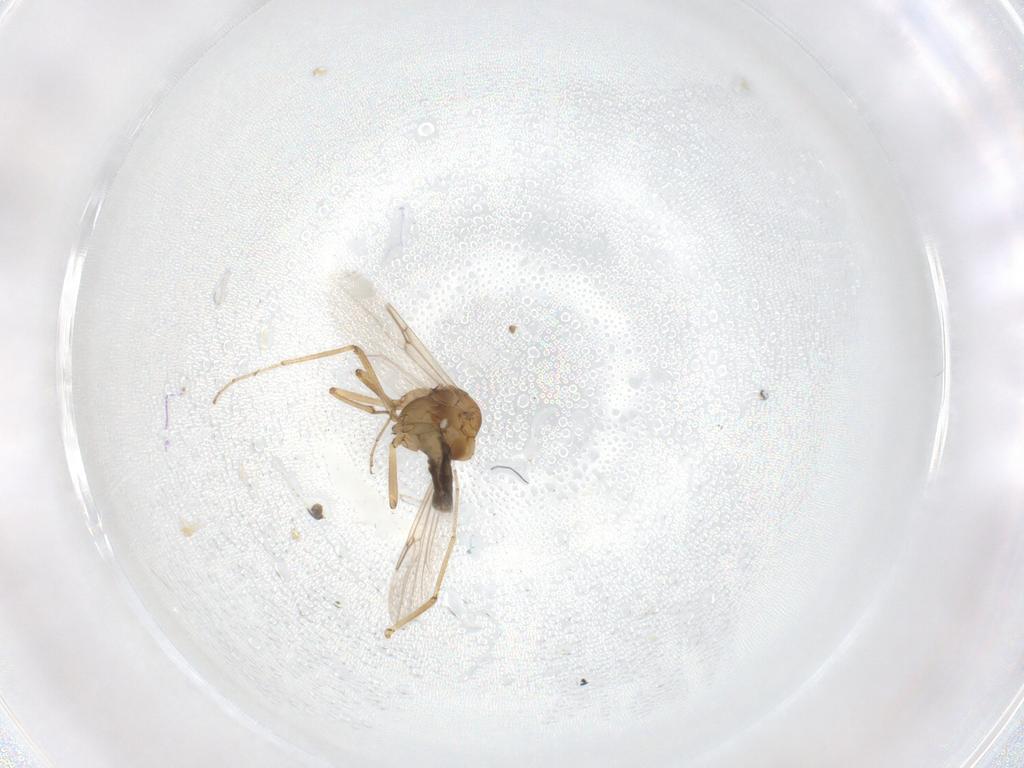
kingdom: Animalia
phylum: Arthropoda
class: Insecta
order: Diptera
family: Ceratopogonidae
